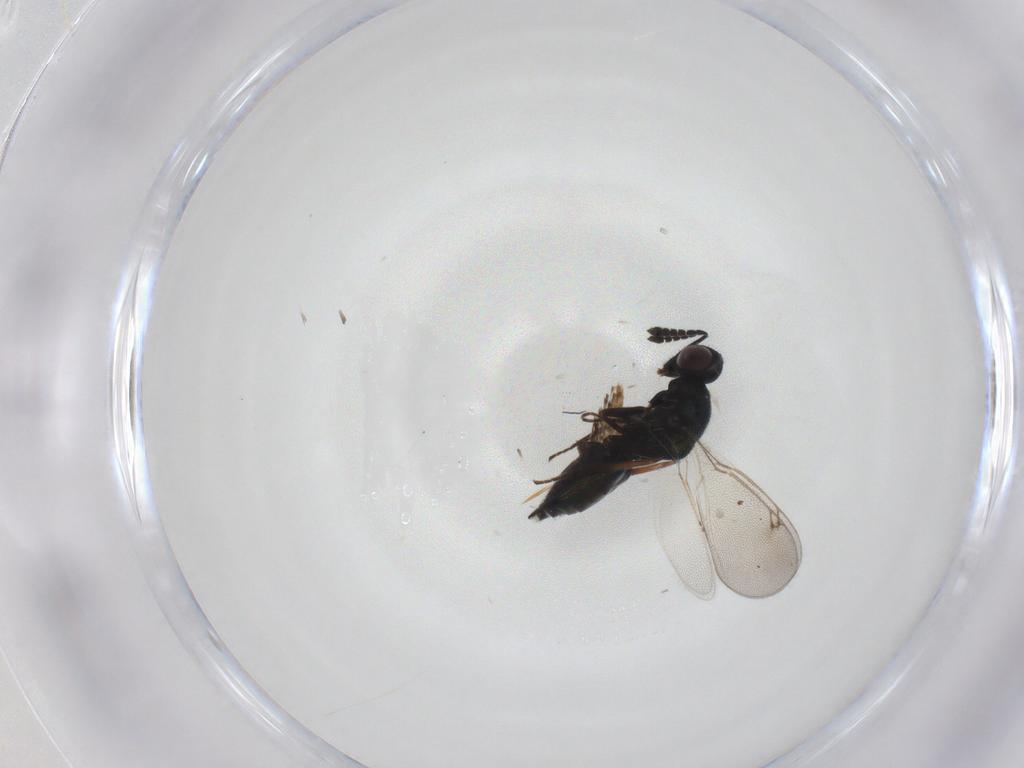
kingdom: Animalia
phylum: Arthropoda
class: Insecta
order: Hymenoptera
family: Eulophidae
